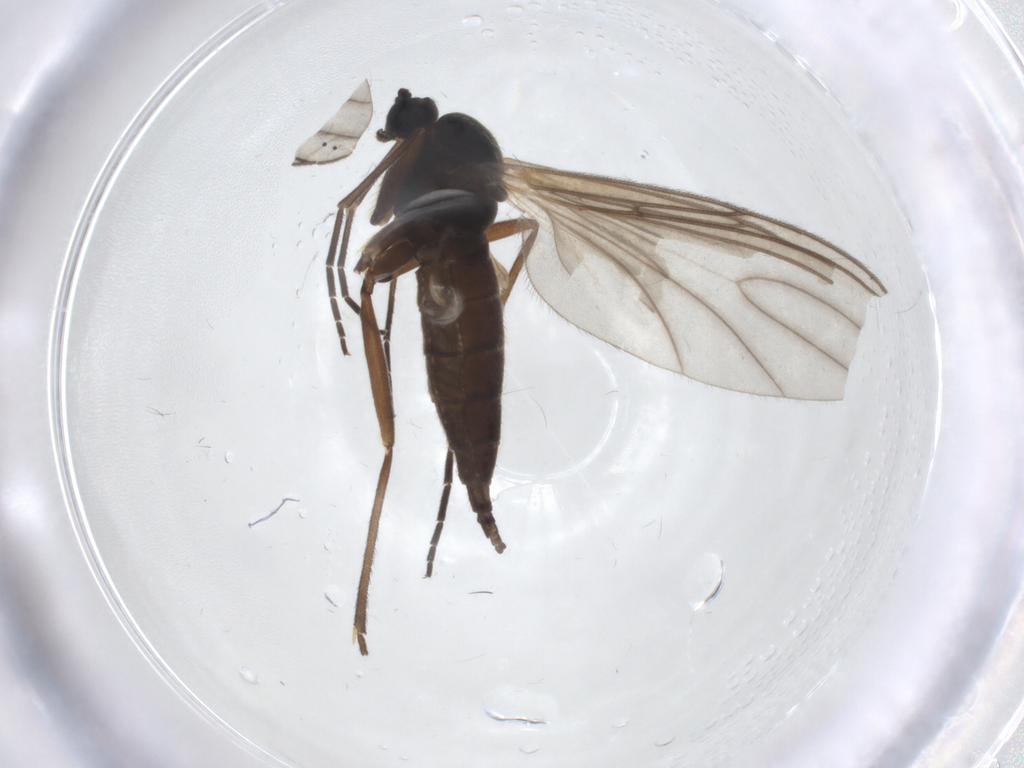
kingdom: Animalia
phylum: Arthropoda
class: Insecta
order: Diptera
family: Sciaridae
